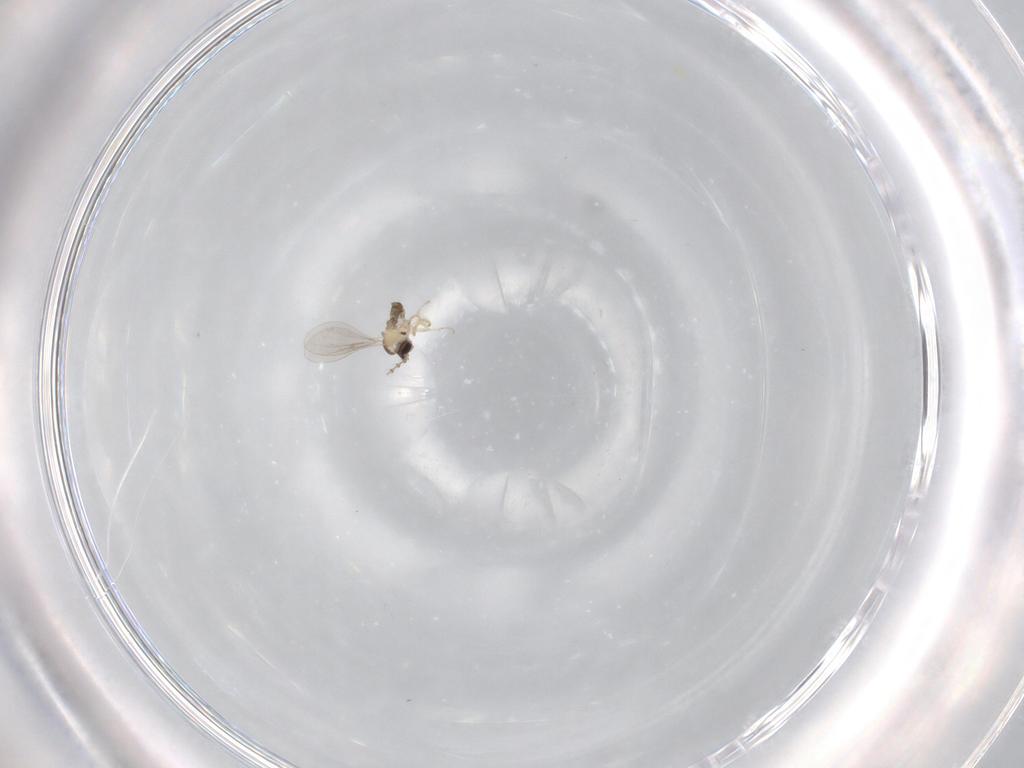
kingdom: Animalia
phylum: Arthropoda
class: Insecta
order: Diptera
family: Cecidomyiidae
